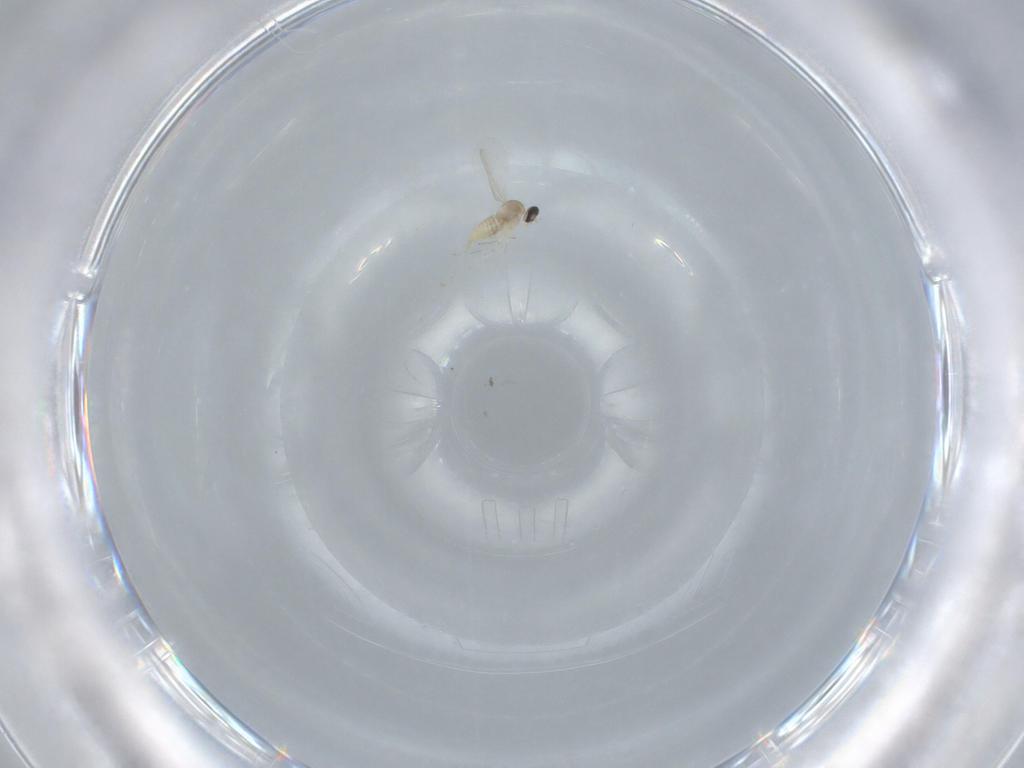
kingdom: Animalia
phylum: Arthropoda
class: Insecta
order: Diptera
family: Cecidomyiidae
